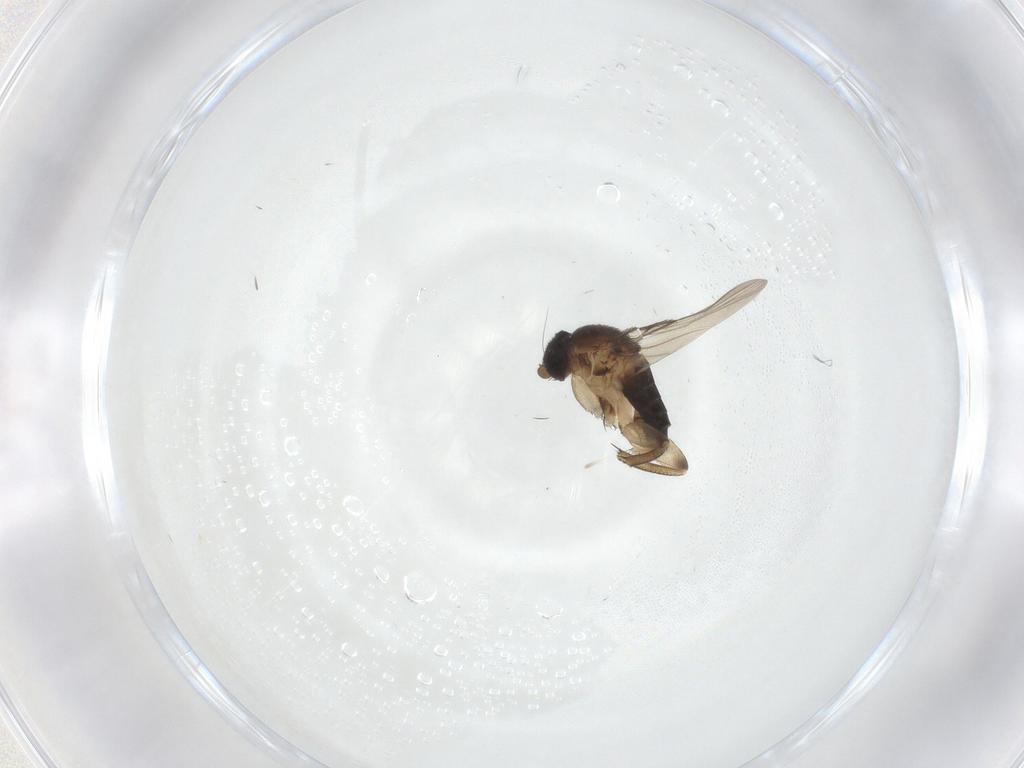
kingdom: Animalia
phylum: Arthropoda
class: Insecta
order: Diptera
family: Phoridae
